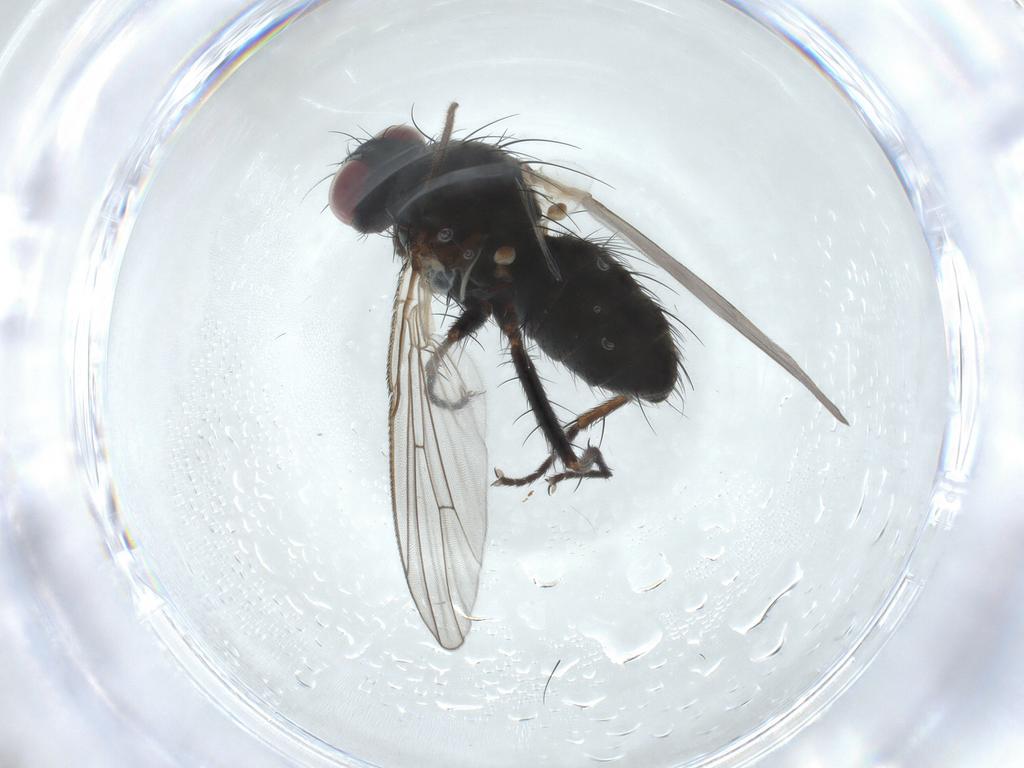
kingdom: Animalia
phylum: Arthropoda
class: Insecta
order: Diptera
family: Muscidae
